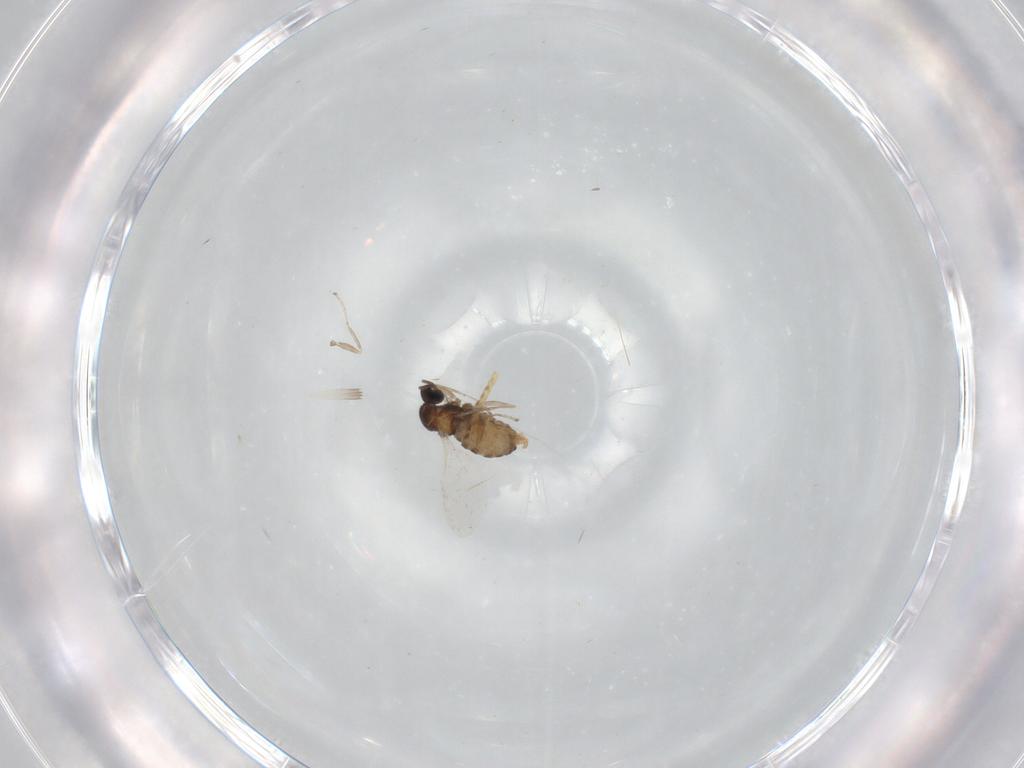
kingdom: Animalia
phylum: Arthropoda
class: Insecta
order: Diptera
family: Cecidomyiidae
